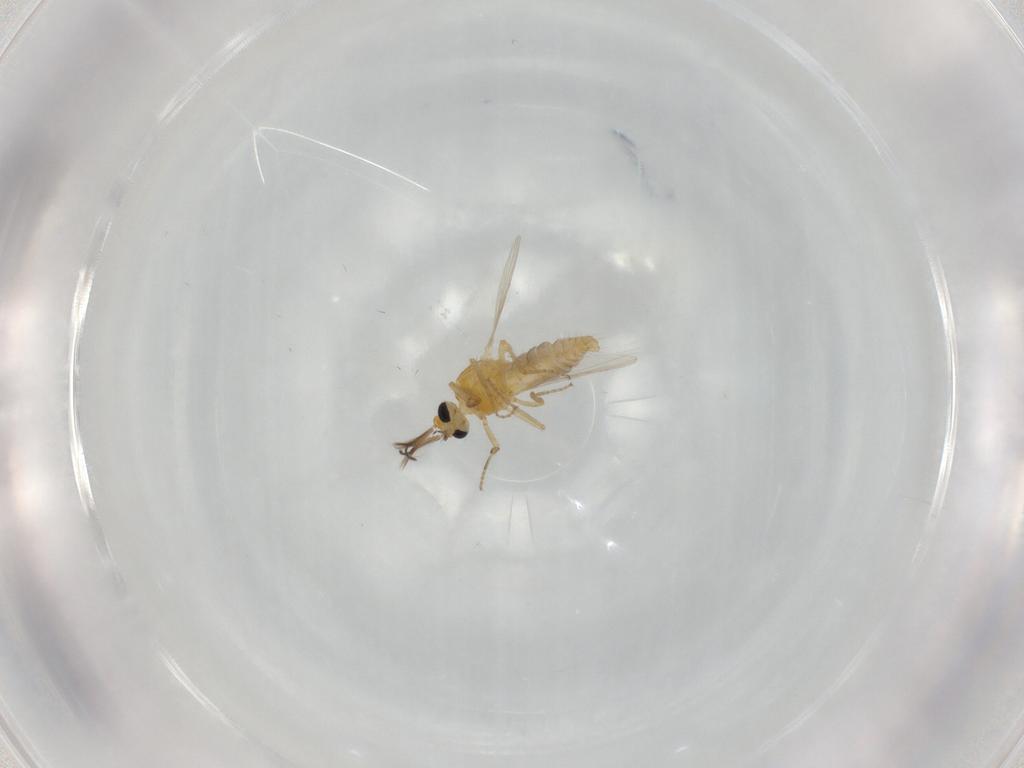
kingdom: Animalia
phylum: Arthropoda
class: Insecta
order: Diptera
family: Ceratopogonidae
